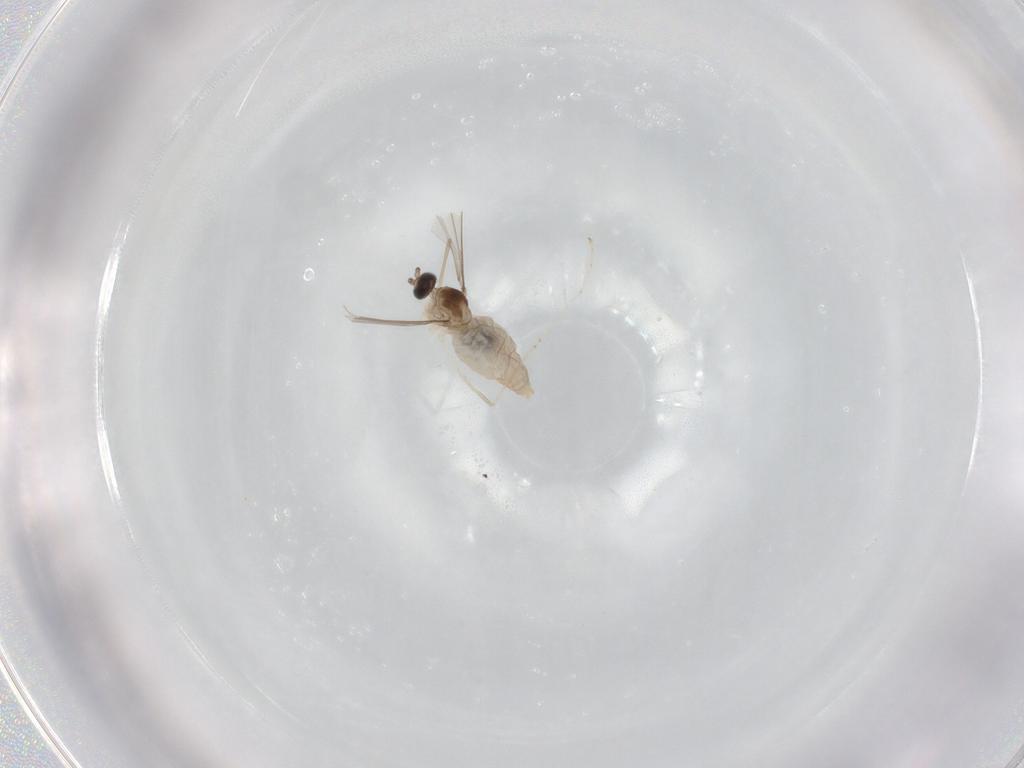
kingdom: Animalia
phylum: Arthropoda
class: Insecta
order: Diptera
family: Cecidomyiidae
